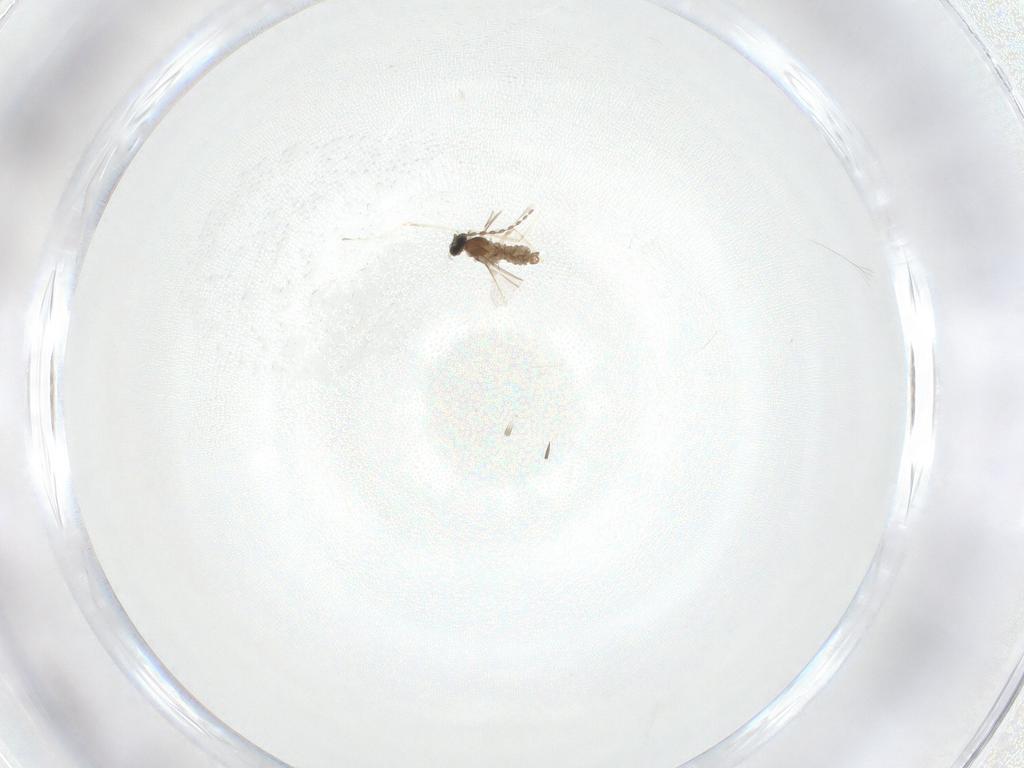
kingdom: Animalia
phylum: Arthropoda
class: Insecta
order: Diptera
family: Cecidomyiidae
